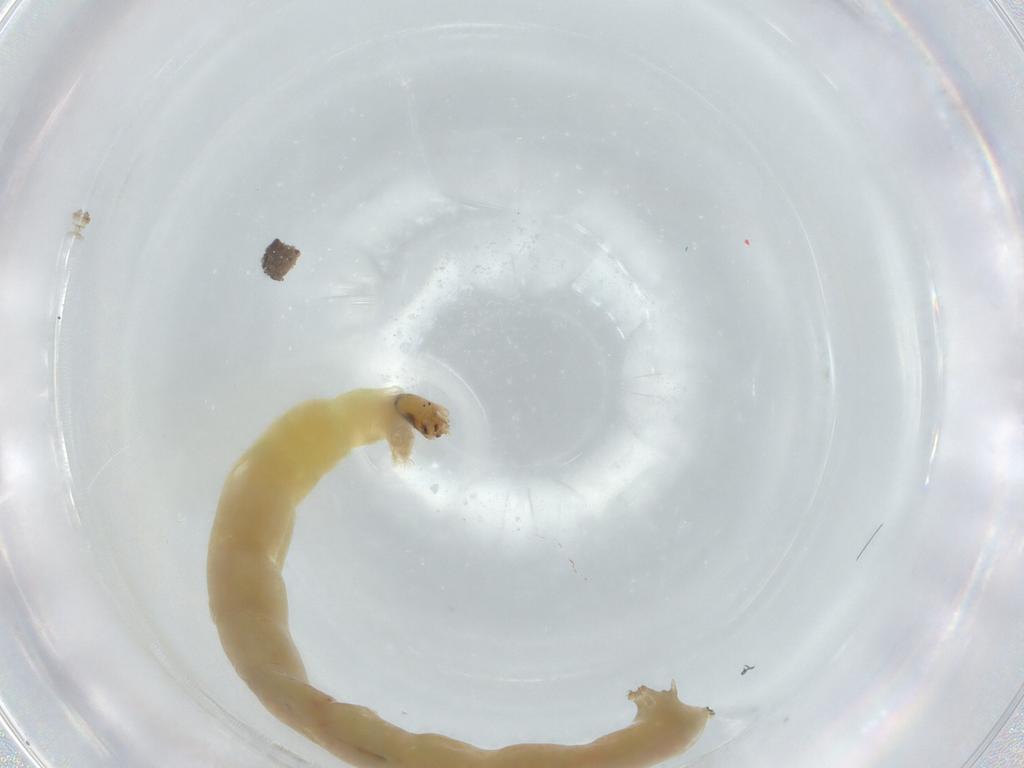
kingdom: Animalia
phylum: Arthropoda
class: Insecta
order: Diptera
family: Chironomidae
